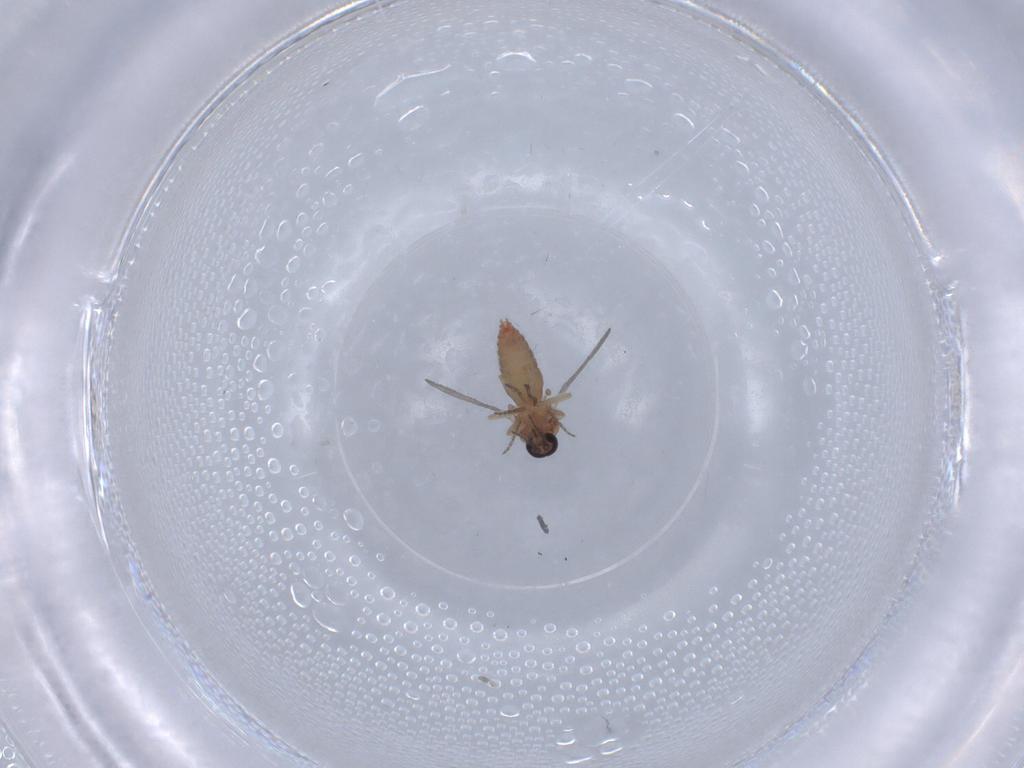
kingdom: Animalia
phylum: Arthropoda
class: Insecta
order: Diptera
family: Ceratopogonidae
